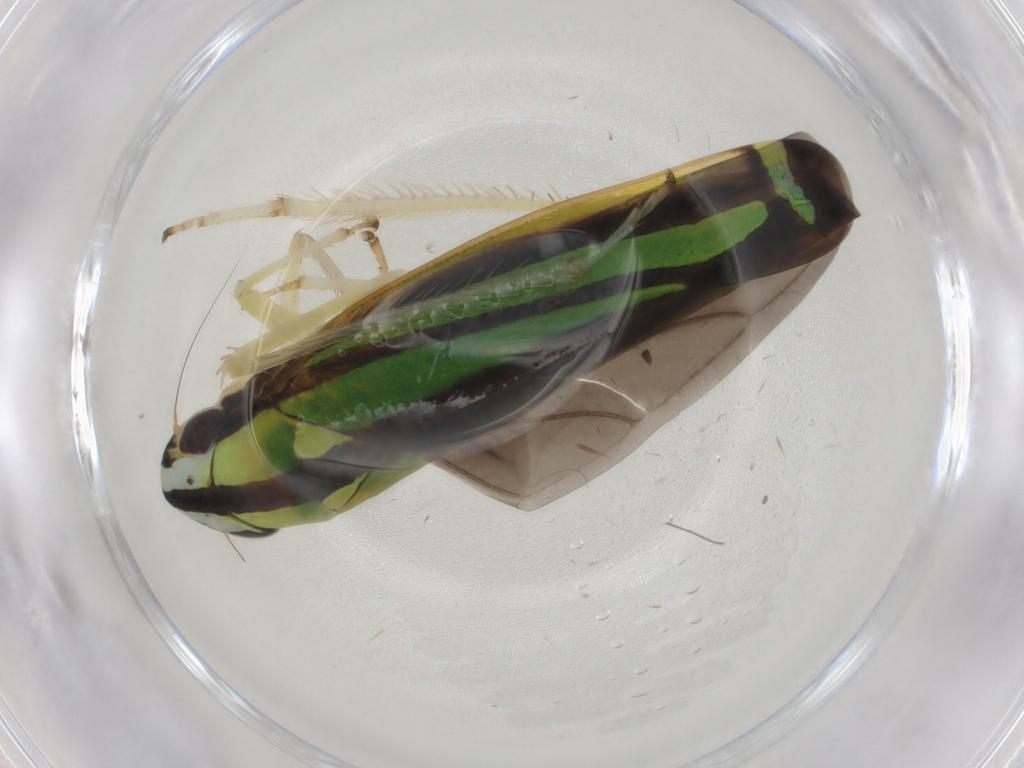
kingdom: Animalia
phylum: Arthropoda
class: Insecta
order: Hemiptera
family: Cicadellidae
